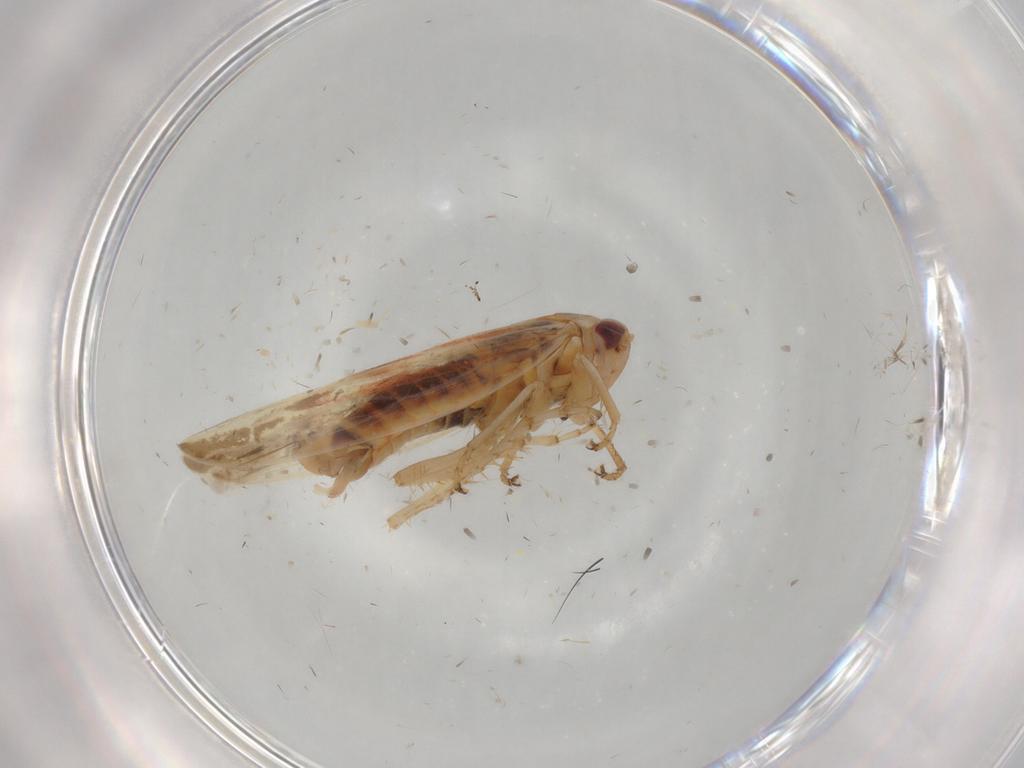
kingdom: Animalia
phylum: Arthropoda
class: Insecta
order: Hemiptera
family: Cicadellidae
